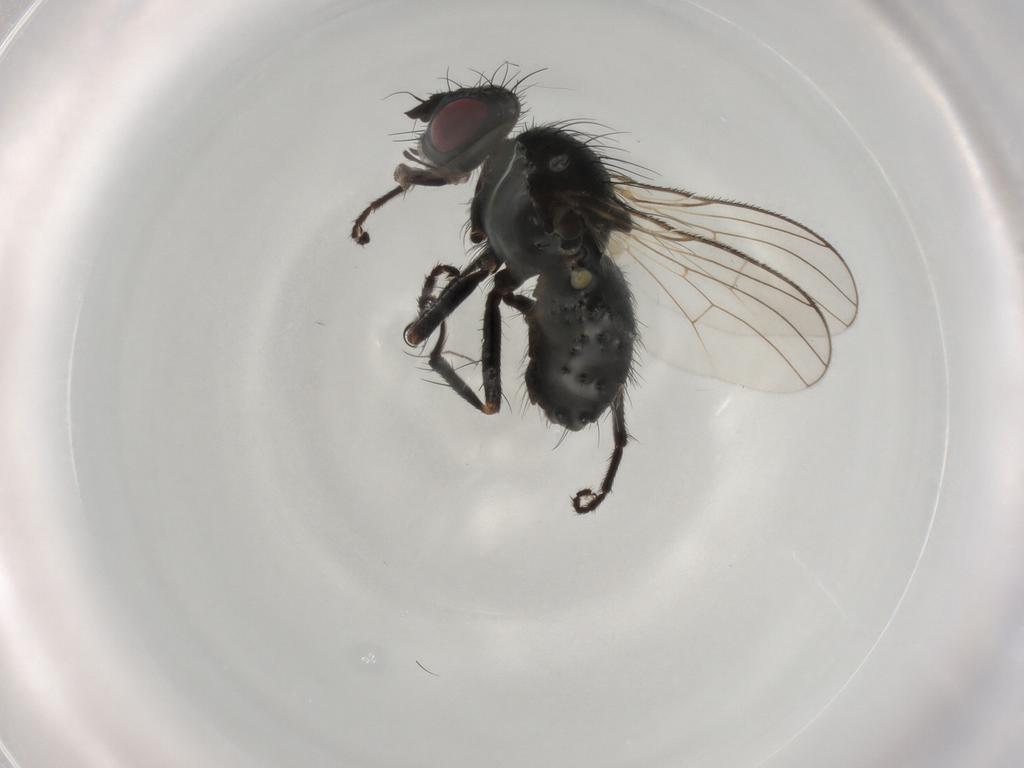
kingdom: Animalia
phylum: Arthropoda
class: Insecta
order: Diptera
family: Muscidae
